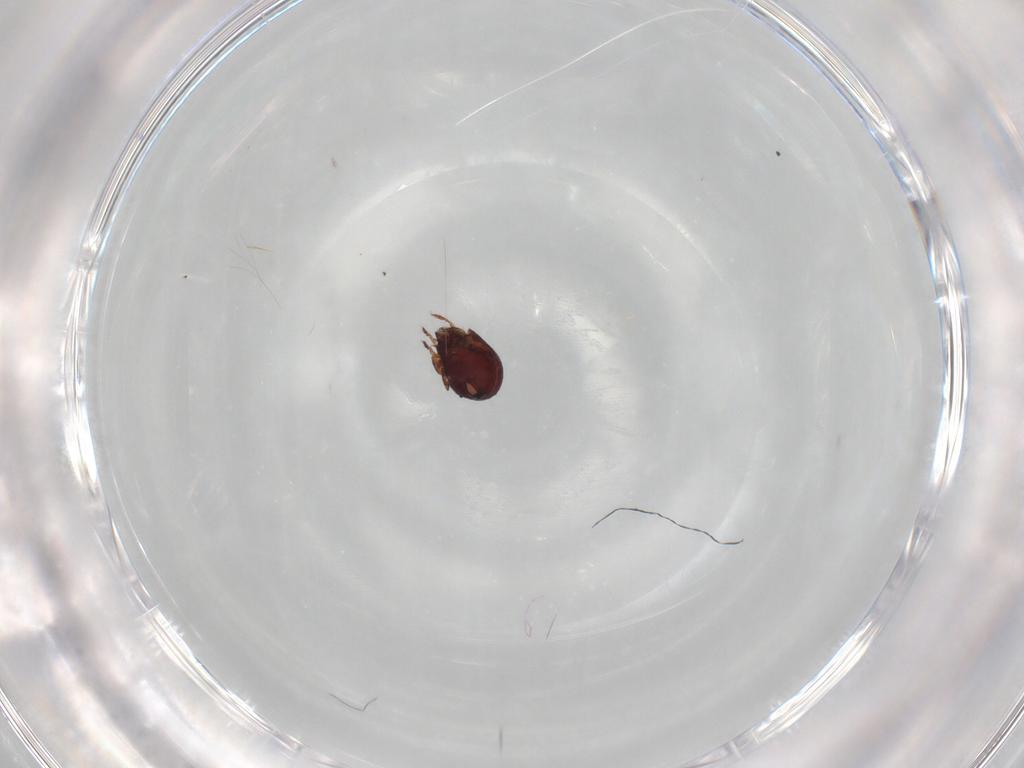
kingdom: Animalia
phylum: Arthropoda
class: Arachnida
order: Sarcoptiformes
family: Humerobatidae
